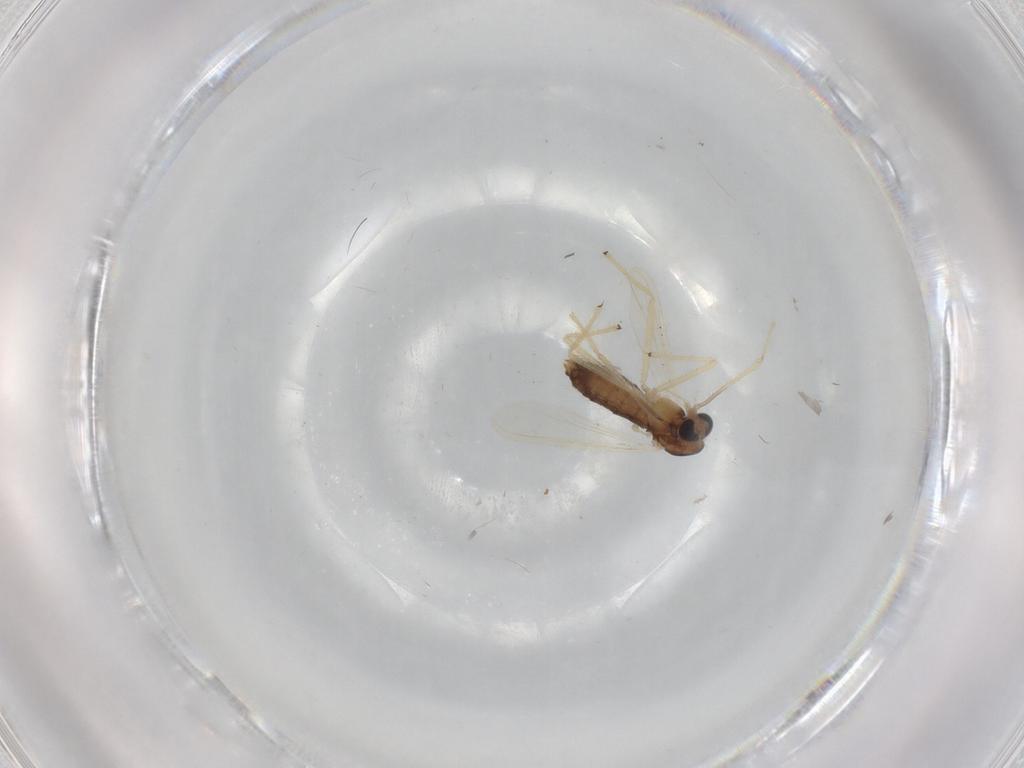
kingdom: Animalia
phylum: Arthropoda
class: Insecta
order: Diptera
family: Chironomidae
